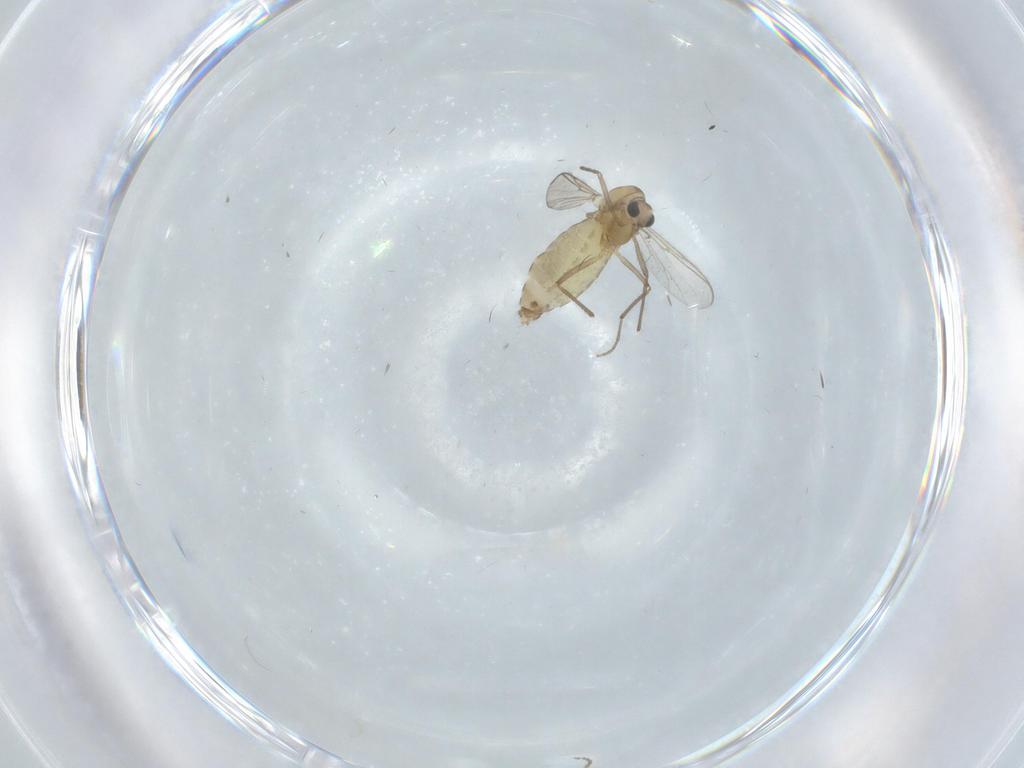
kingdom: Animalia
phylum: Arthropoda
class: Insecta
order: Diptera
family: Chironomidae
